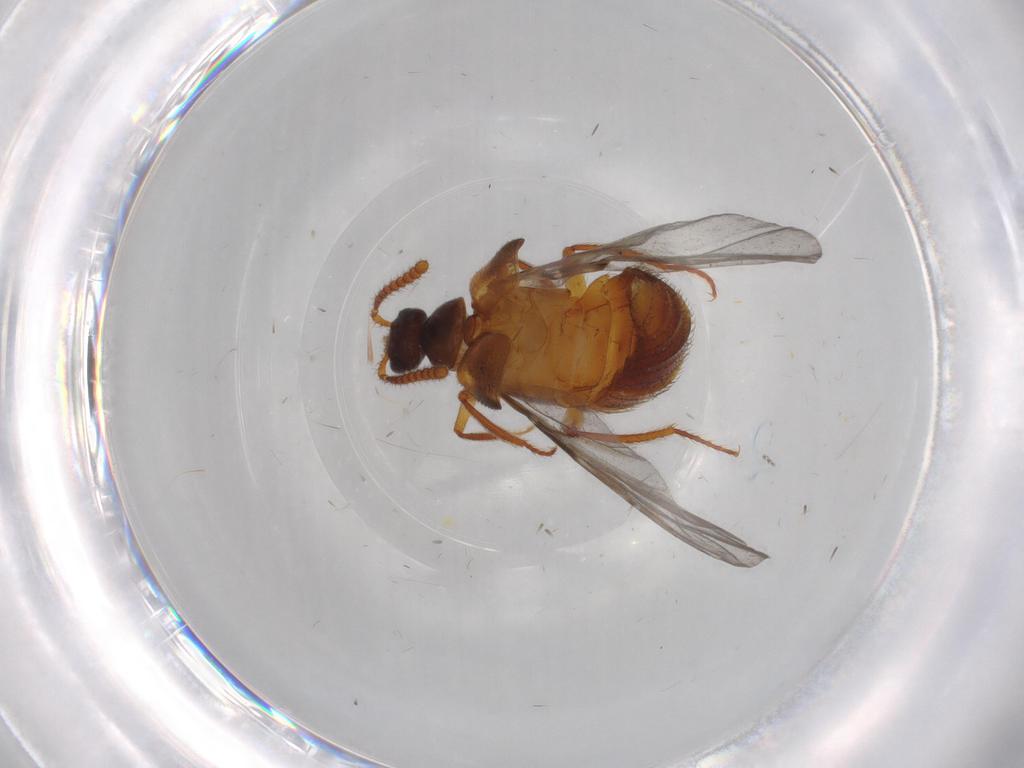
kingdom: Animalia
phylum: Arthropoda
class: Insecta
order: Coleoptera
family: Staphylinidae
